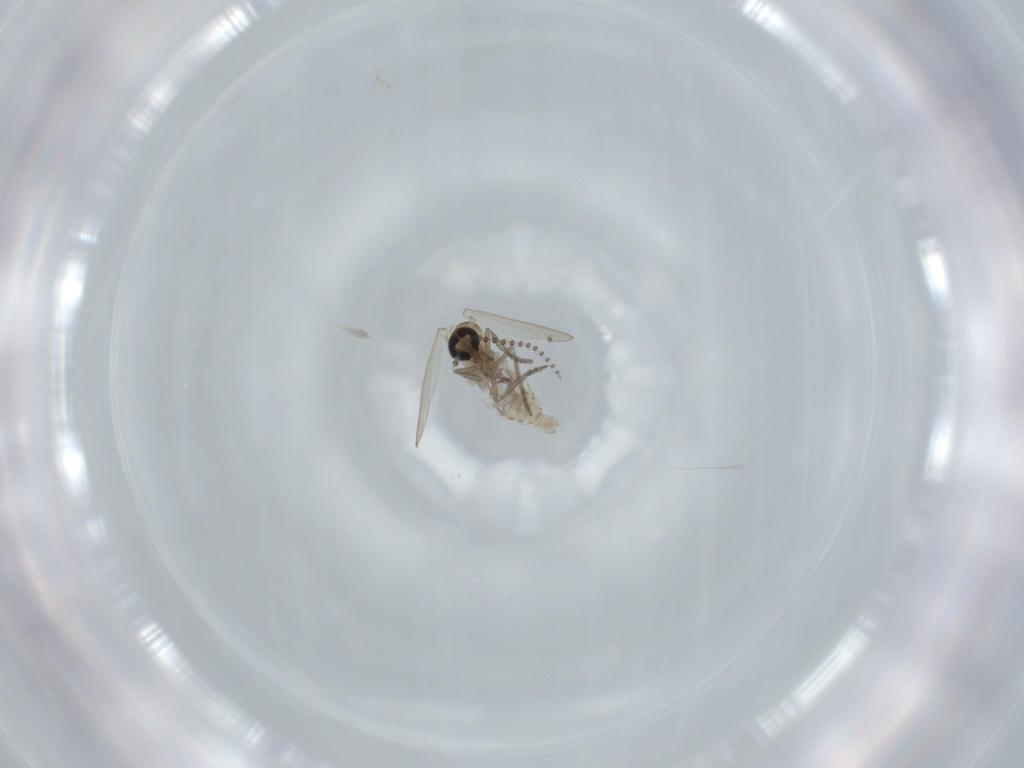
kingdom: Animalia
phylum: Arthropoda
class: Insecta
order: Diptera
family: Psychodidae
